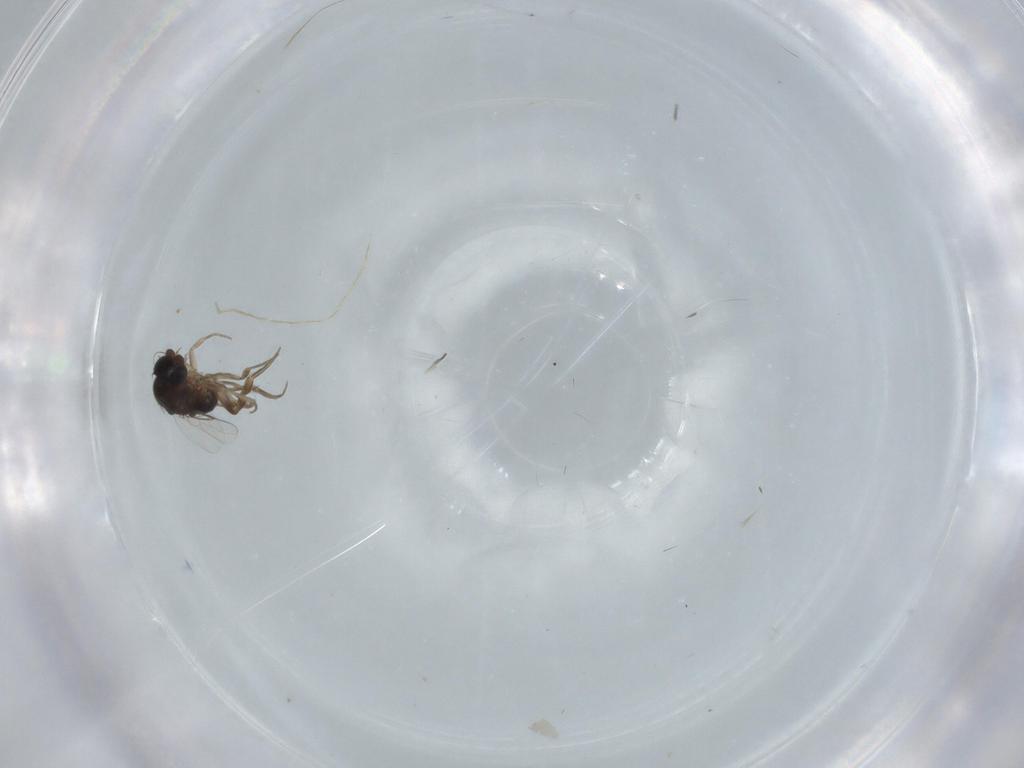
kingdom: Animalia
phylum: Arthropoda
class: Insecta
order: Diptera
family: Phoridae
